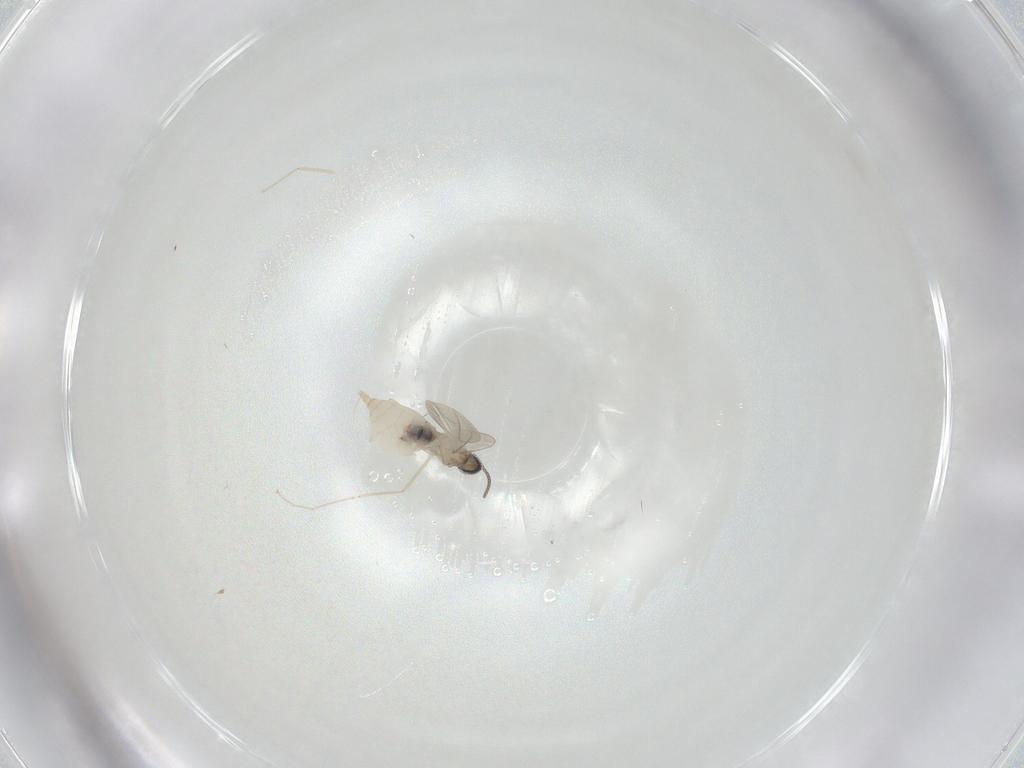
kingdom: Animalia
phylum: Arthropoda
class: Insecta
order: Diptera
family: Cecidomyiidae
